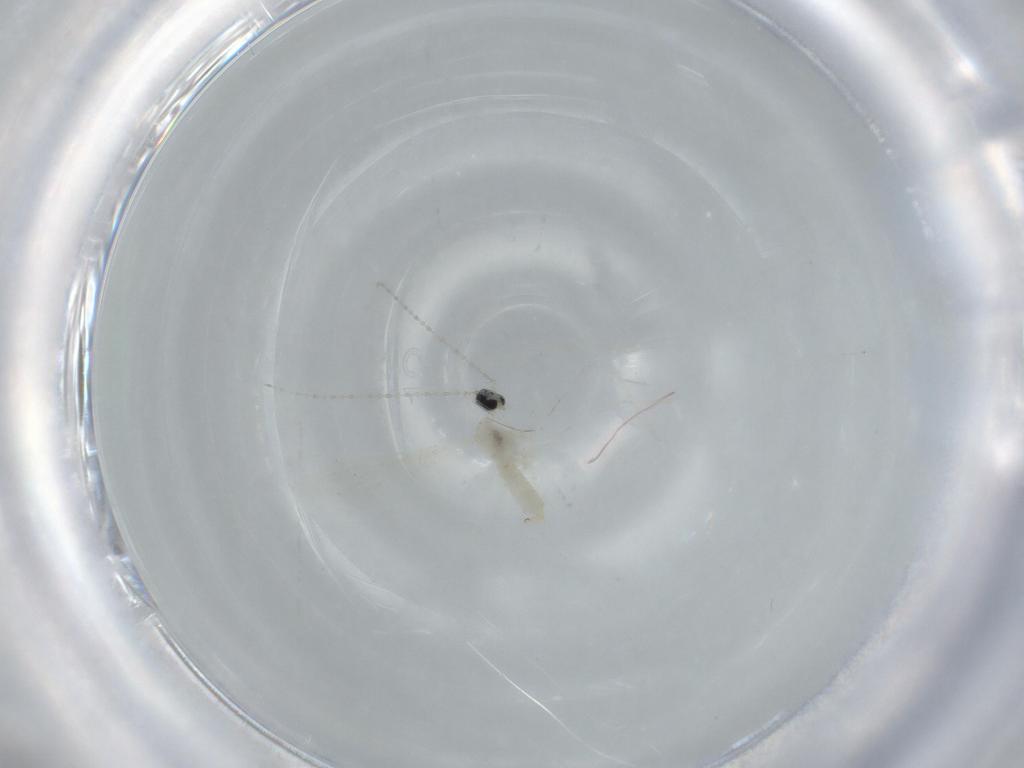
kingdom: Animalia
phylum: Arthropoda
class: Insecta
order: Diptera
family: Cecidomyiidae
